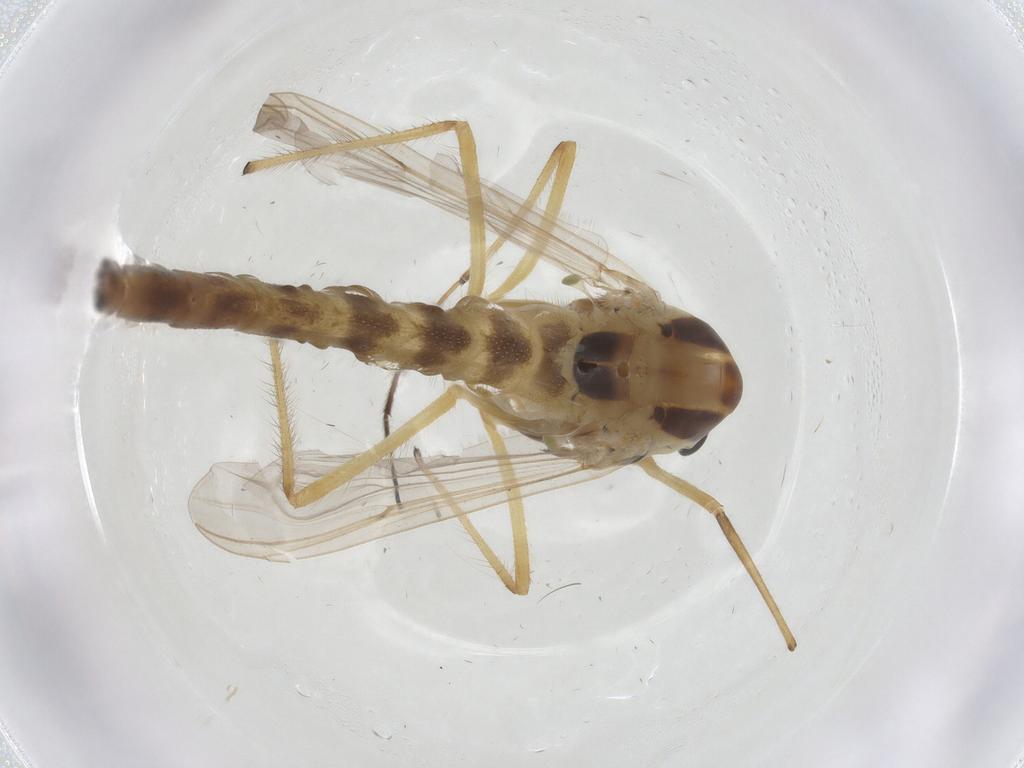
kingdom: Animalia
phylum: Arthropoda
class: Insecta
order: Diptera
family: Chironomidae
